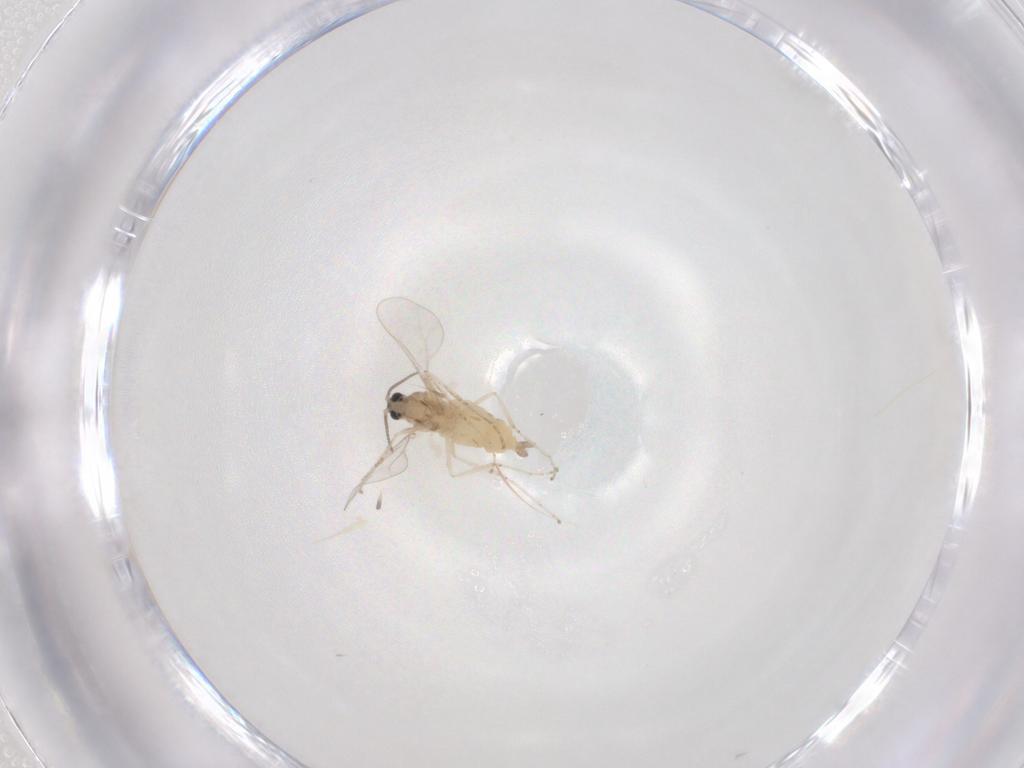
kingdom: Animalia
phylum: Arthropoda
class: Insecta
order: Diptera
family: Cecidomyiidae
